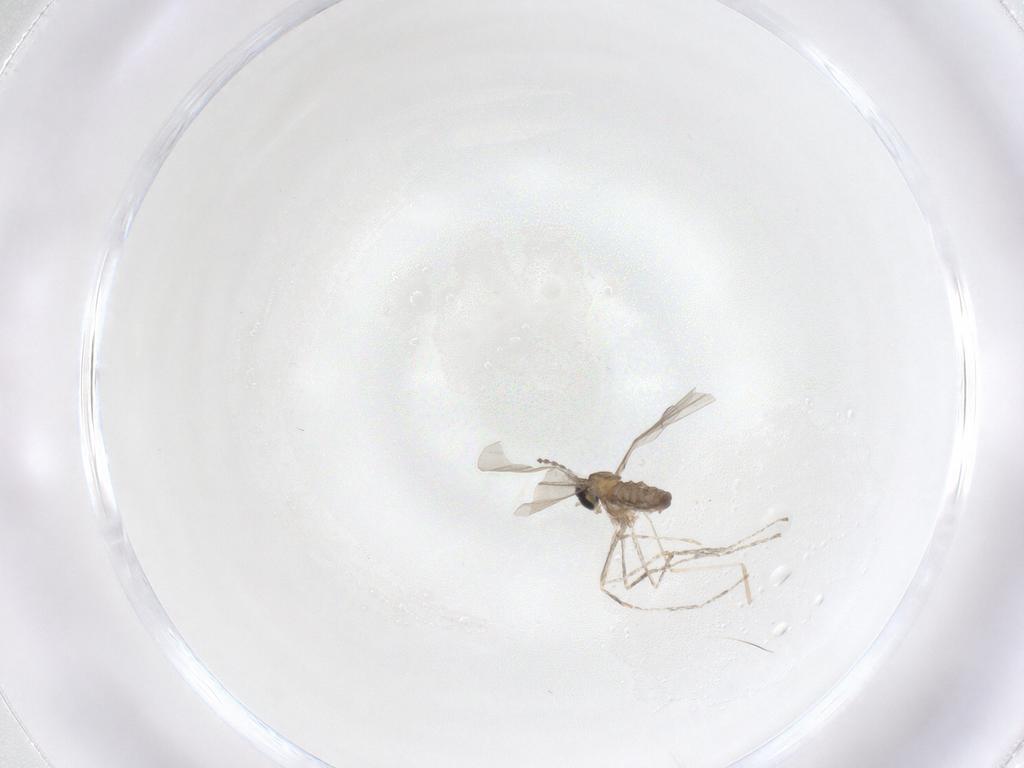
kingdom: Animalia
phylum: Arthropoda
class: Insecta
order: Diptera
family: Cecidomyiidae
